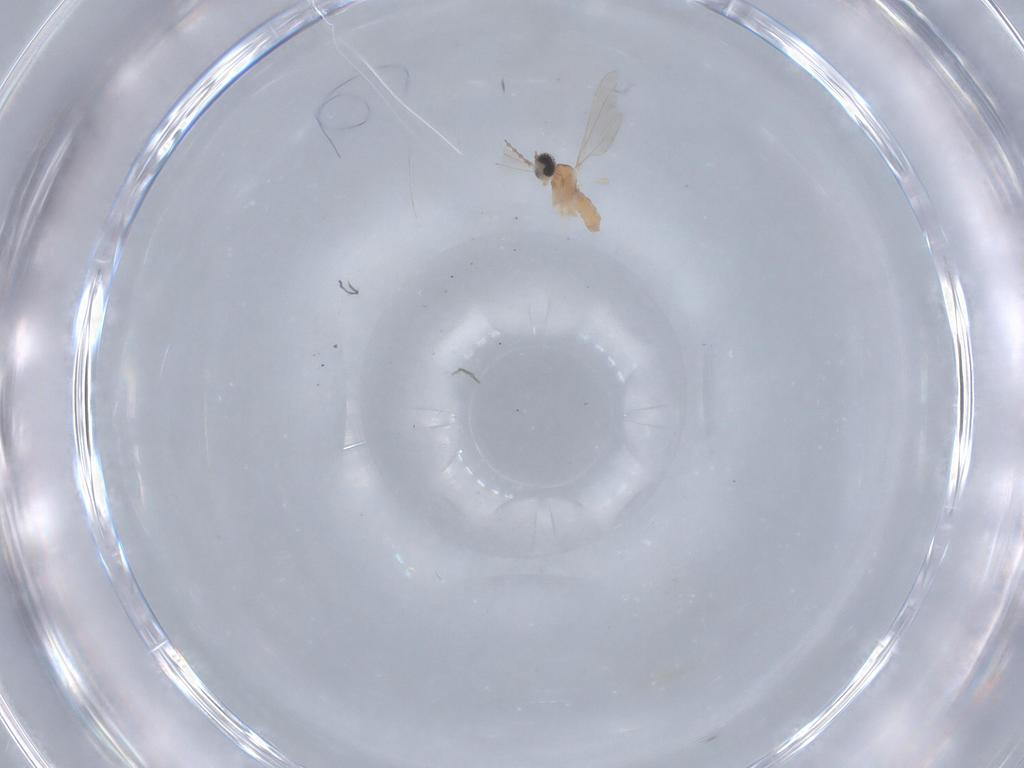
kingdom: Animalia
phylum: Arthropoda
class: Insecta
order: Diptera
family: Cecidomyiidae
